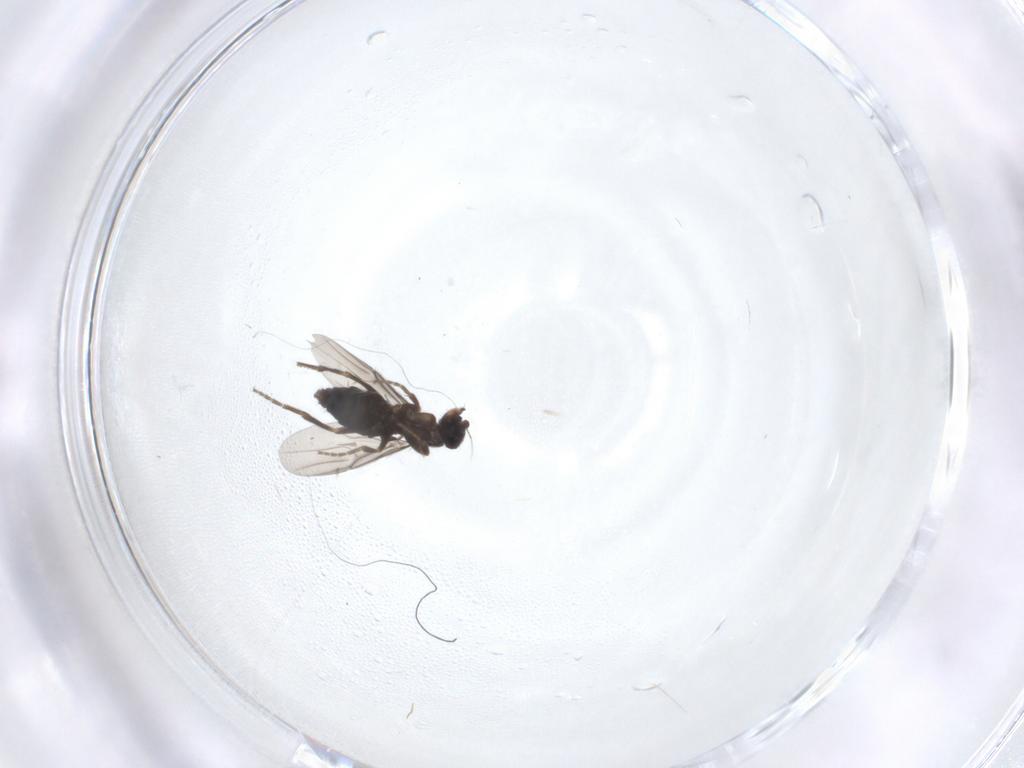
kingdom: Animalia
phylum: Arthropoda
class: Insecta
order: Diptera
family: Phoridae
